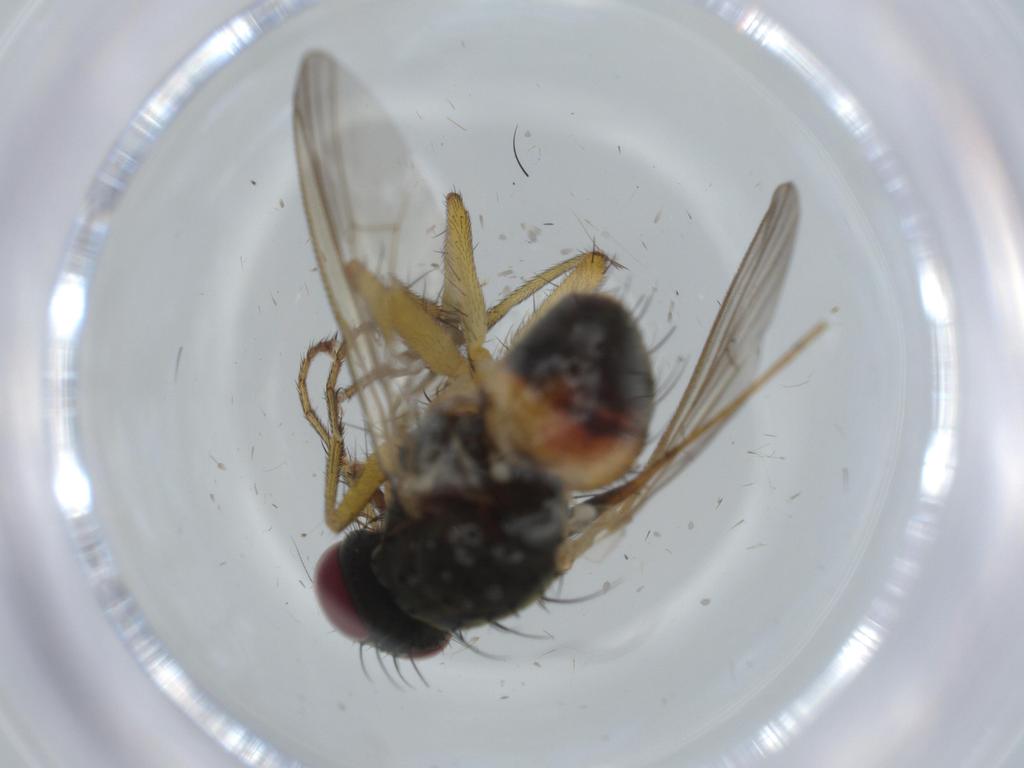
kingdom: Animalia
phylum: Arthropoda
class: Insecta
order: Diptera
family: Muscidae
